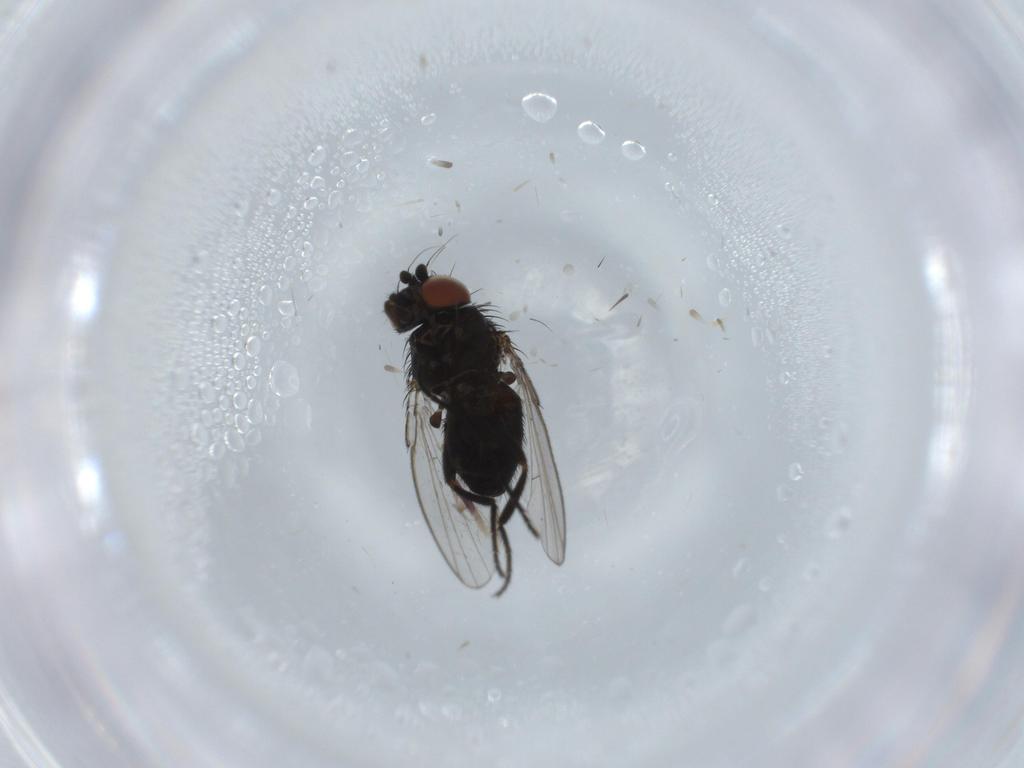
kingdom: Animalia
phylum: Arthropoda
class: Insecta
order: Diptera
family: Milichiidae
